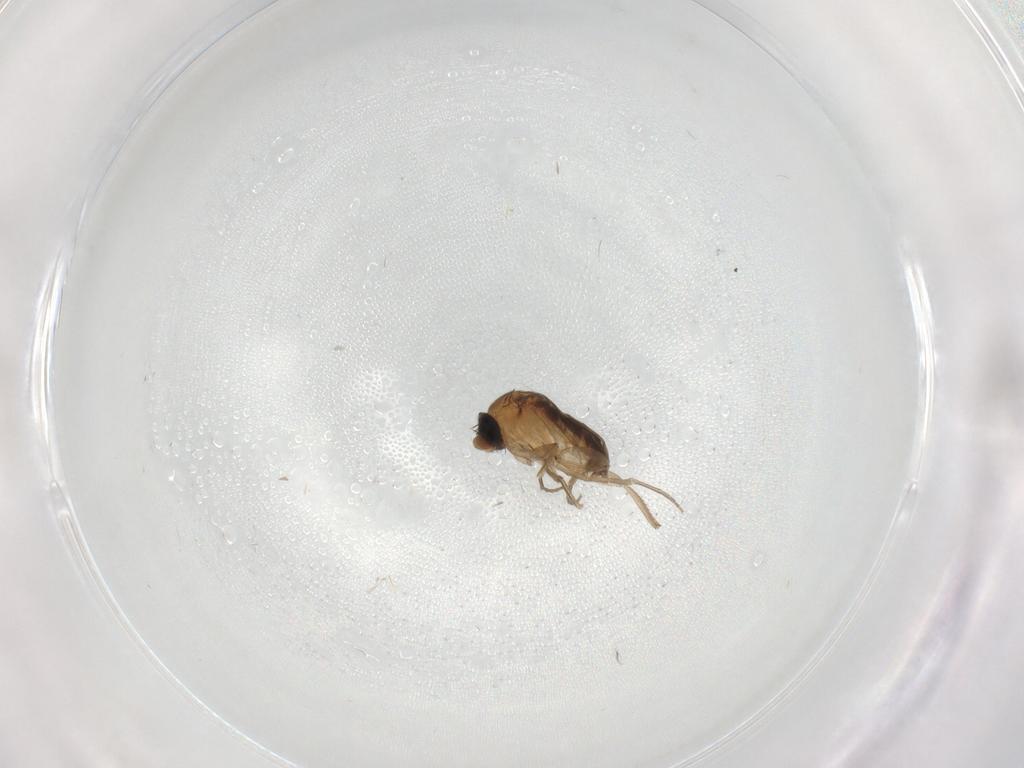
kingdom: Animalia
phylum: Arthropoda
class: Insecta
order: Diptera
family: Phoridae
